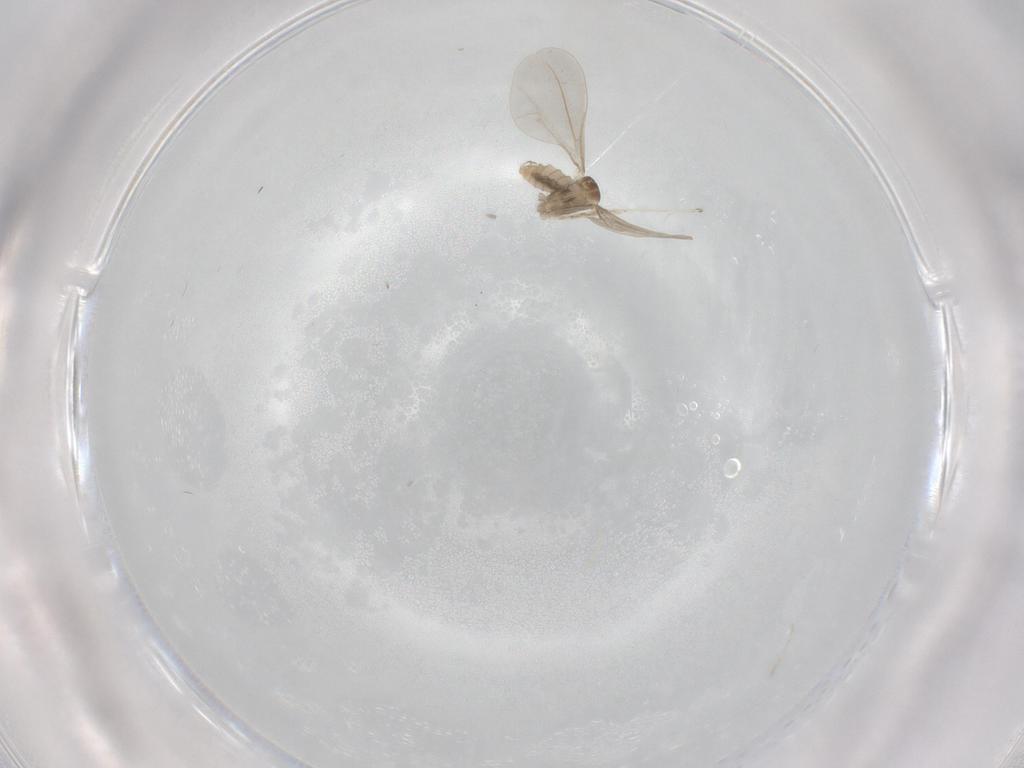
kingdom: Animalia
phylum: Arthropoda
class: Insecta
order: Diptera
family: Cecidomyiidae
